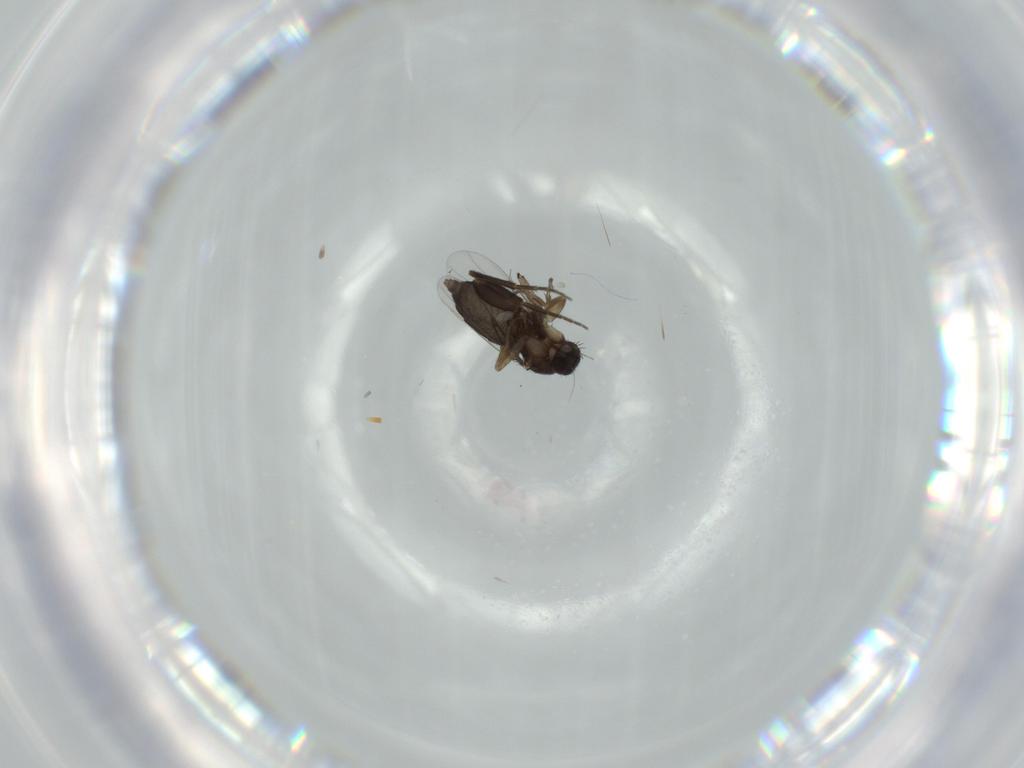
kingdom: Animalia
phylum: Arthropoda
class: Insecta
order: Diptera
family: Phoridae
